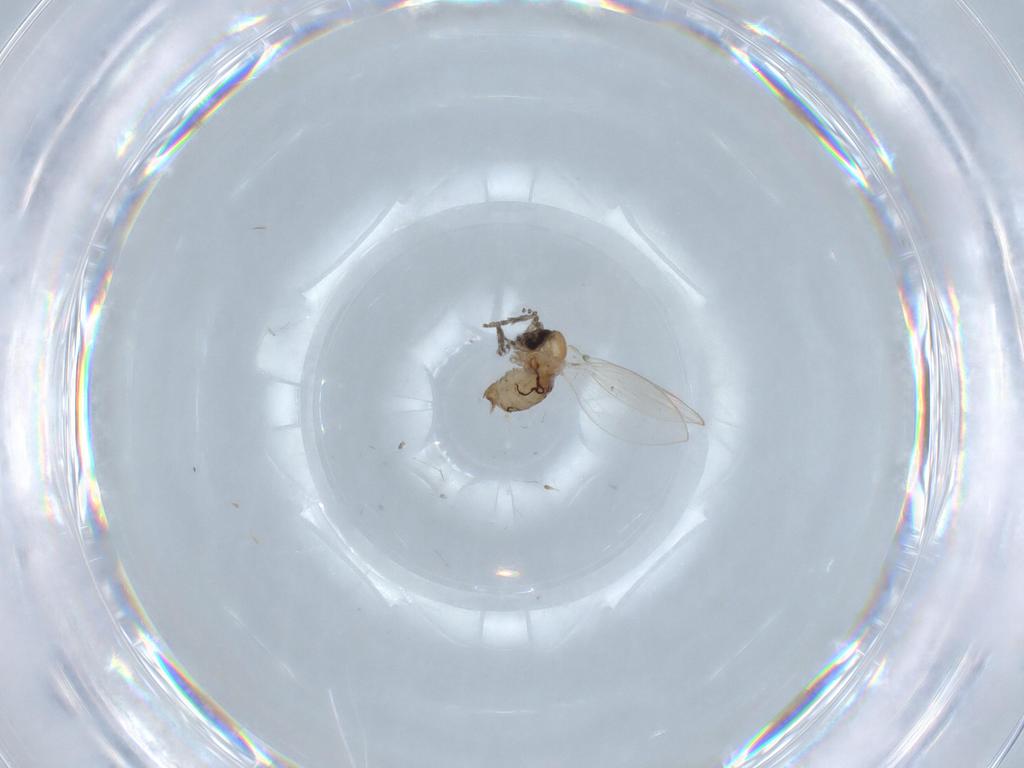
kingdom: Animalia
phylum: Arthropoda
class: Insecta
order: Diptera
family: Psychodidae
